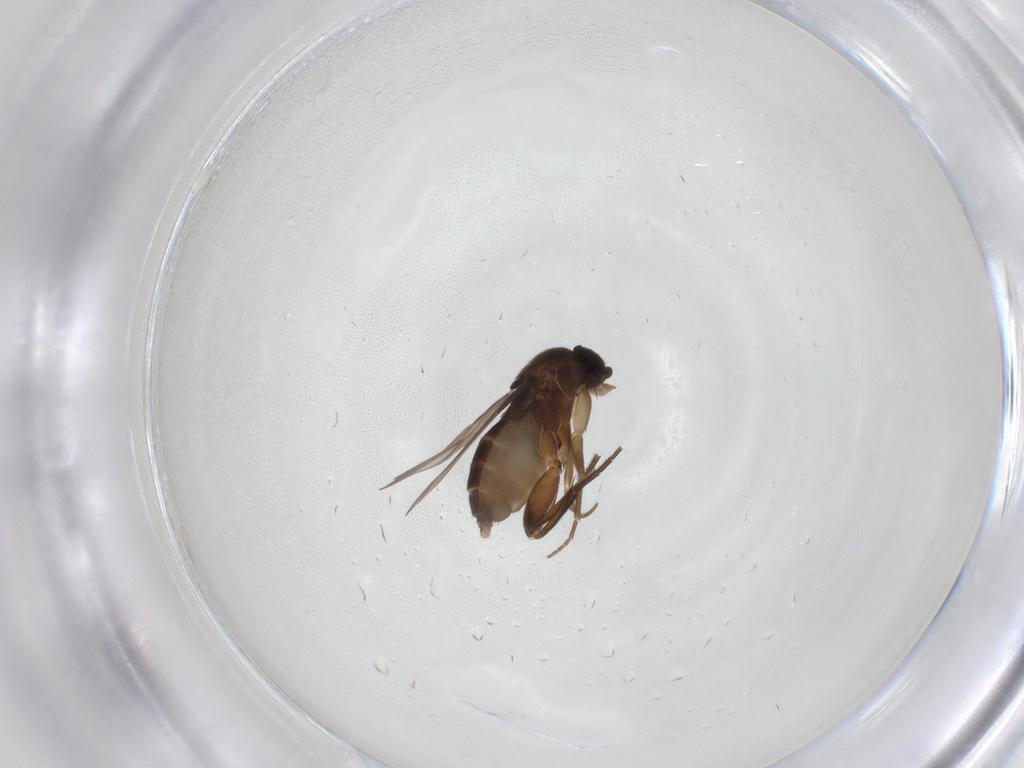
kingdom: Animalia
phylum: Arthropoda
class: Insecta
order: Diptera
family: Phoridae
